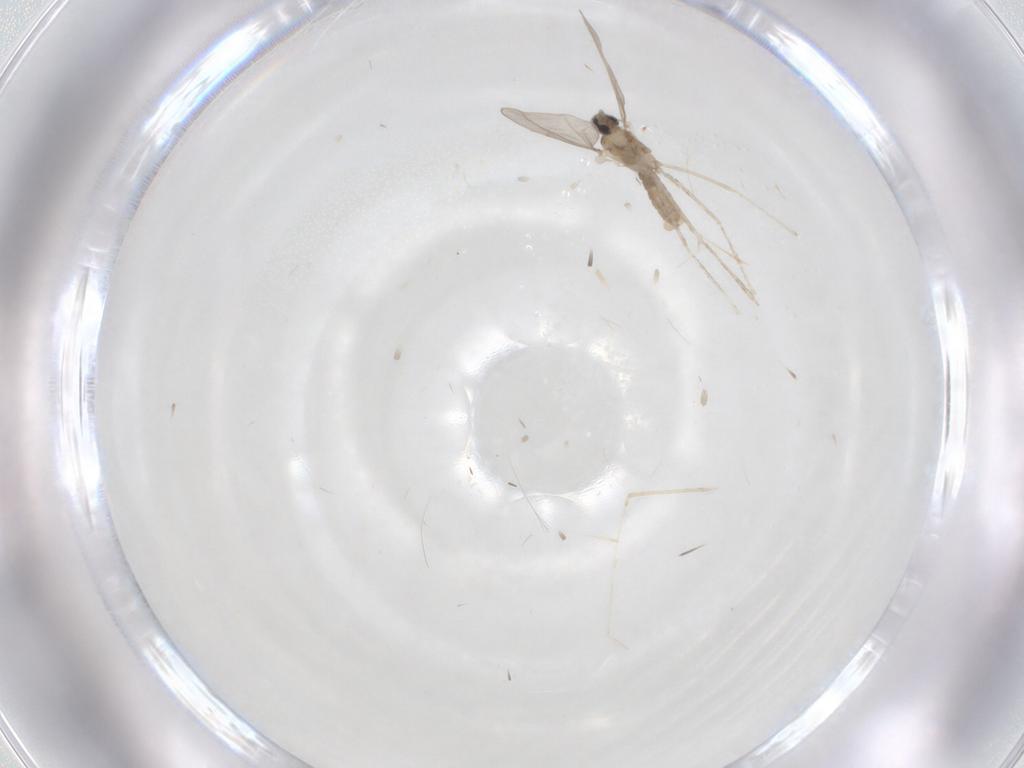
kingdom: Animalia
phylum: Arthropoda
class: Insecta
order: Diptera
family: Cecidomyiidae
